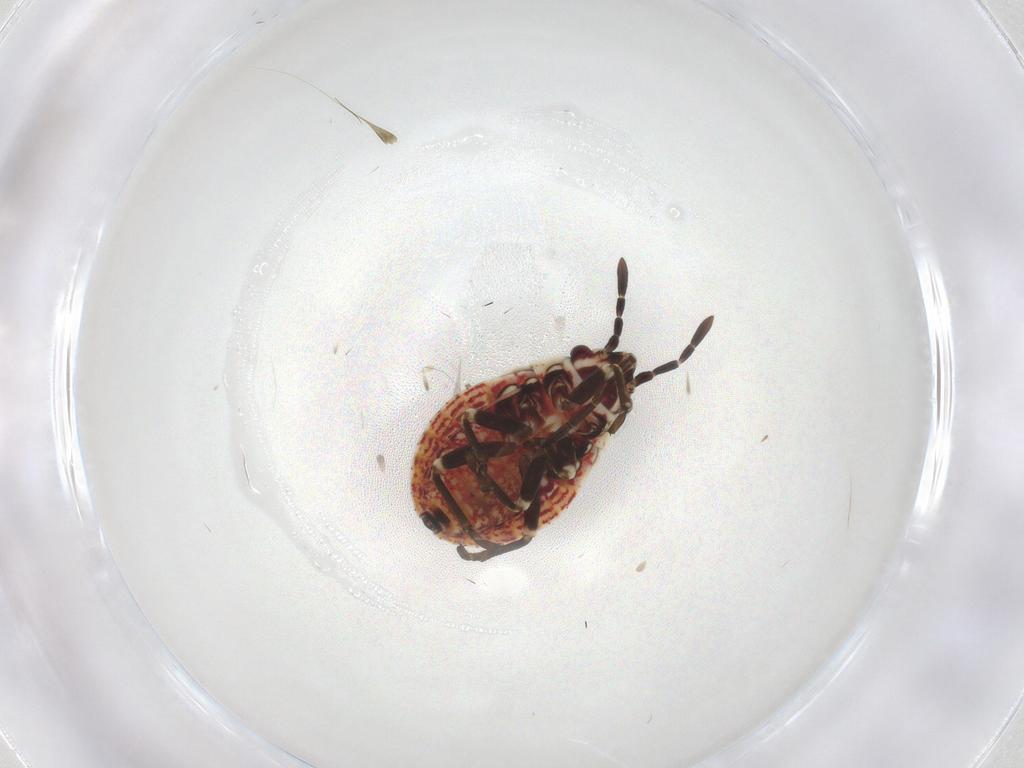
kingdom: Animalia
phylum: Arthropoda
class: Insecta
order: Hemiptera
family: Lygaeidae
